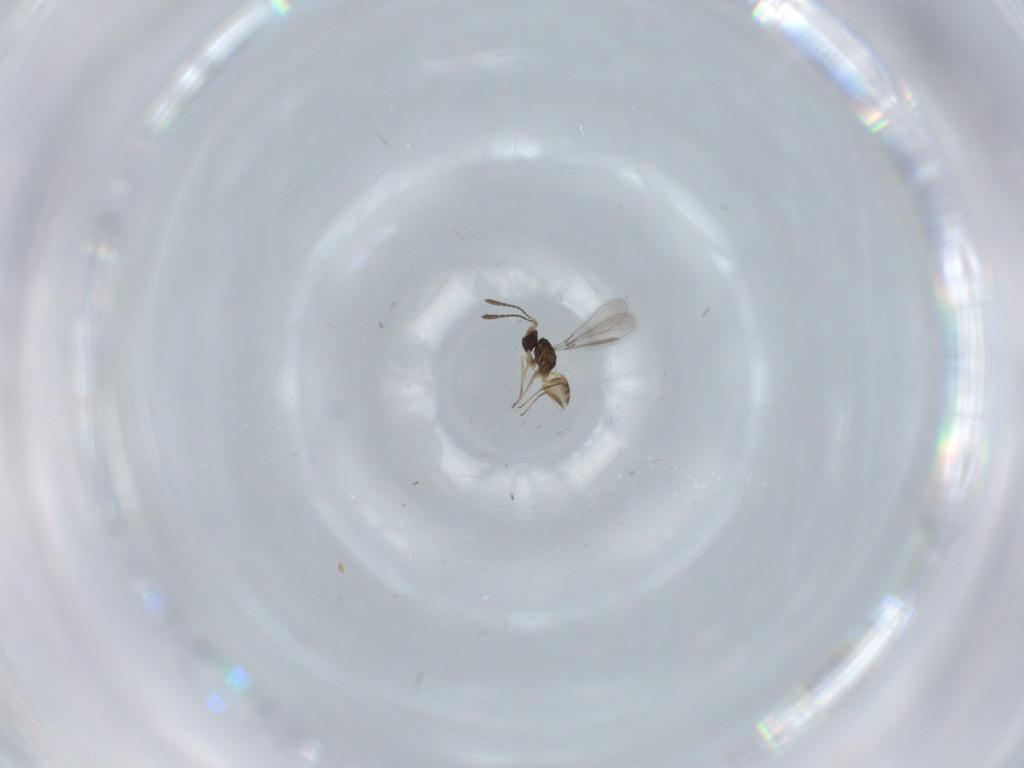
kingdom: Animalia
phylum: Arthropoda
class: Insecta
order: Hymenoptera
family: Mymaridae
